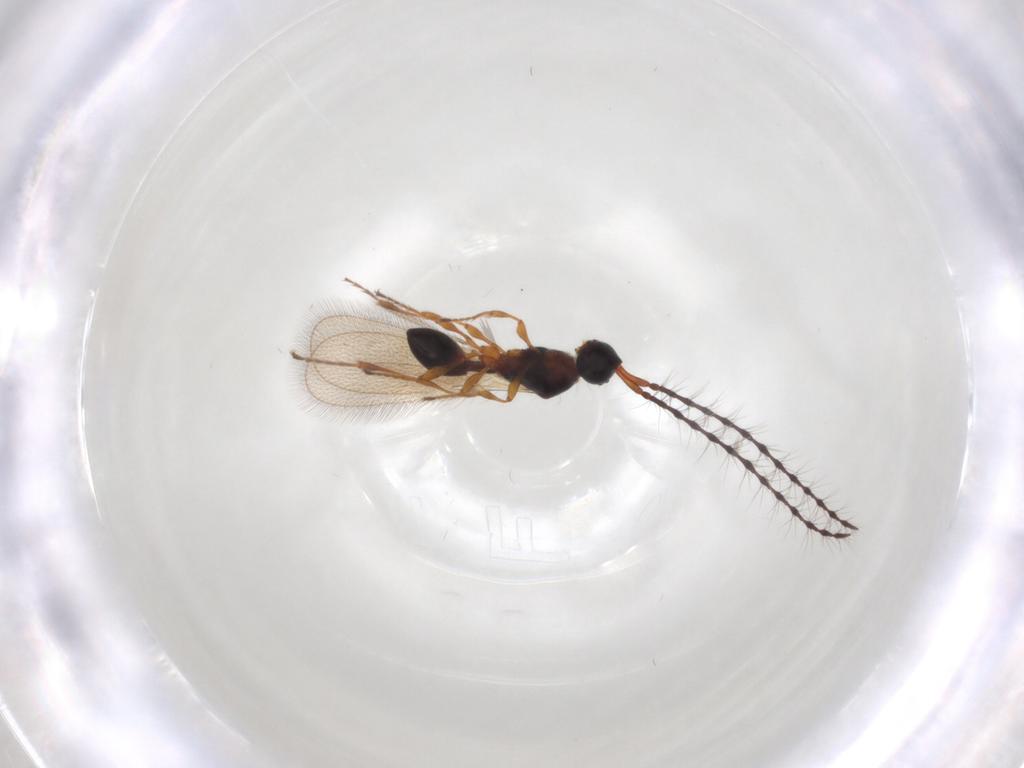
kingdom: Animalia
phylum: Arthropoda
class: Insecta
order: Hymenoptera
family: Diapriidae
